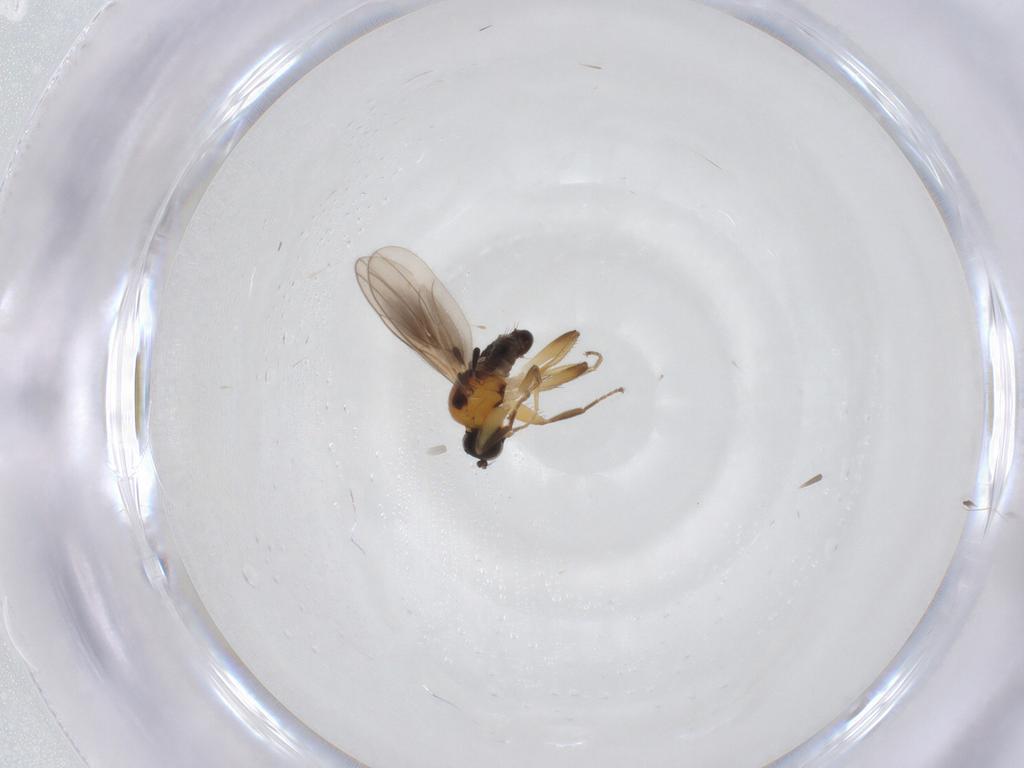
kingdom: Animalia
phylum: Arthropoda
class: Insecta
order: Diptera
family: Hybotidae
